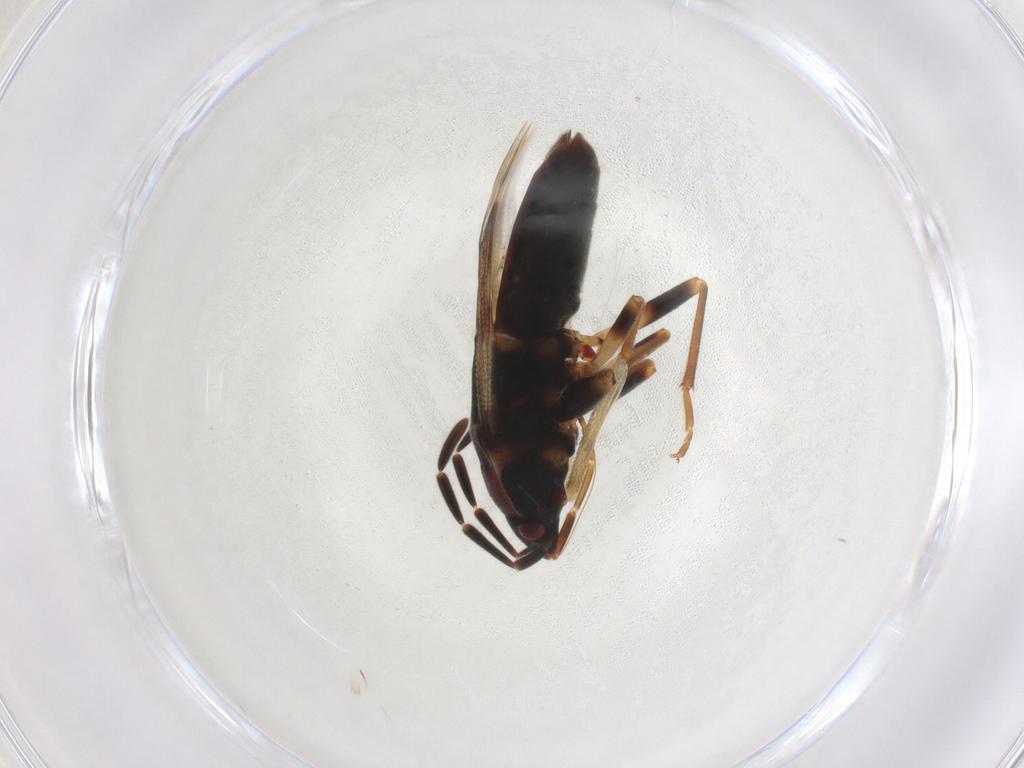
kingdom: Animalia
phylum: Arthropoda
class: Insecta
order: Hemiptera
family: Miridae
